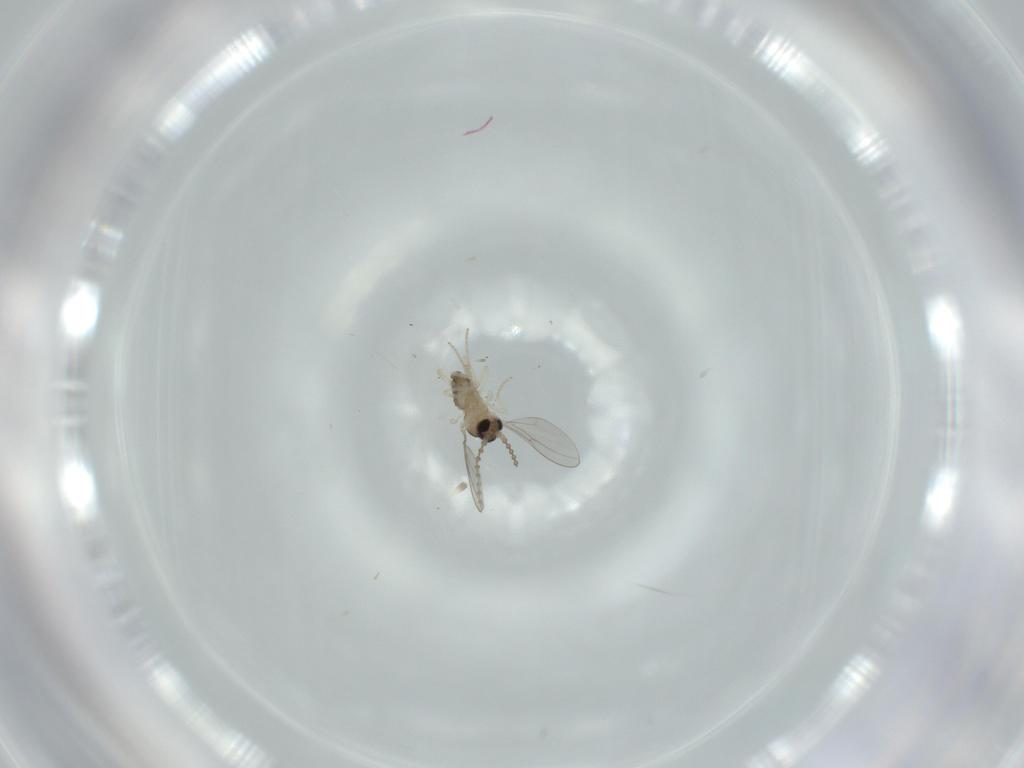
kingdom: Animalia
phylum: Arthropoda
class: Insecta
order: Diptera
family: Cecidomyiidae
